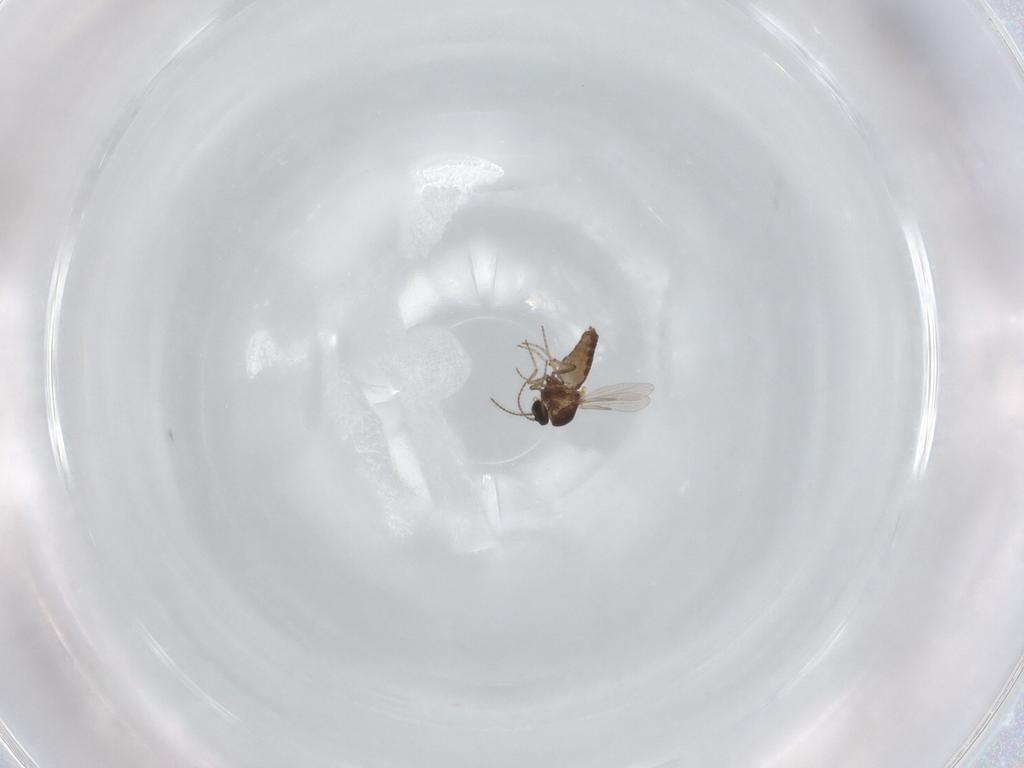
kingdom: Animalia
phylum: Arthropoda
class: Insecta
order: Diptera
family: Ceratopogonidae
